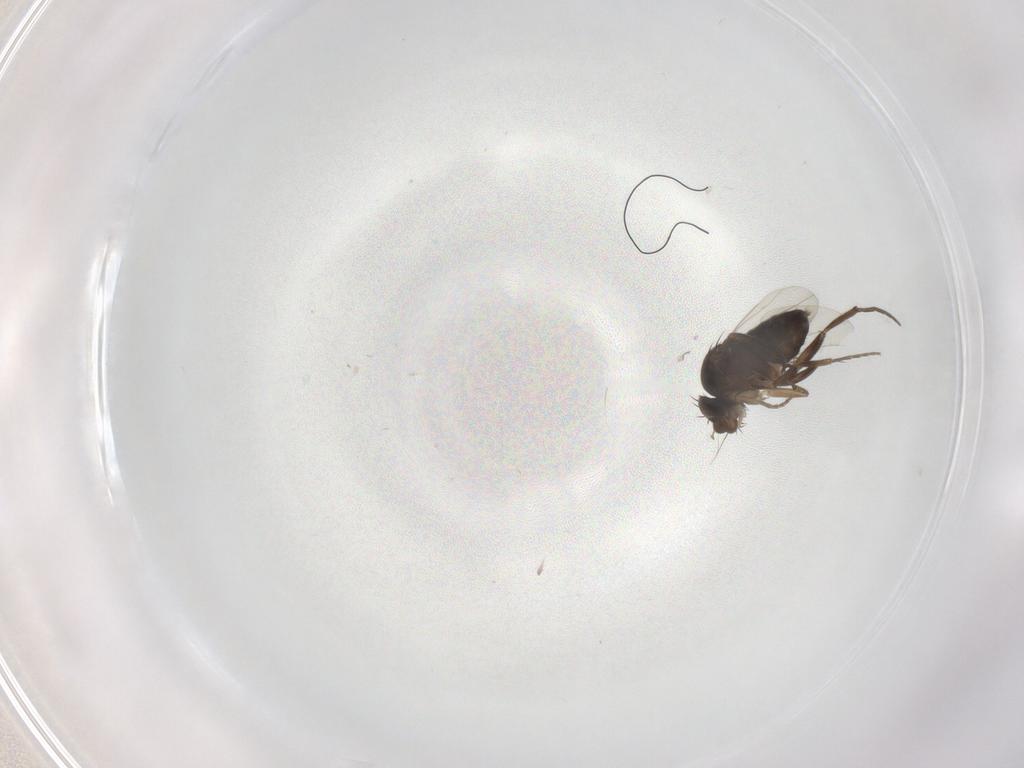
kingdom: Animalia
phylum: Arthropoda
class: Insecta
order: Diptera
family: Phoridae
